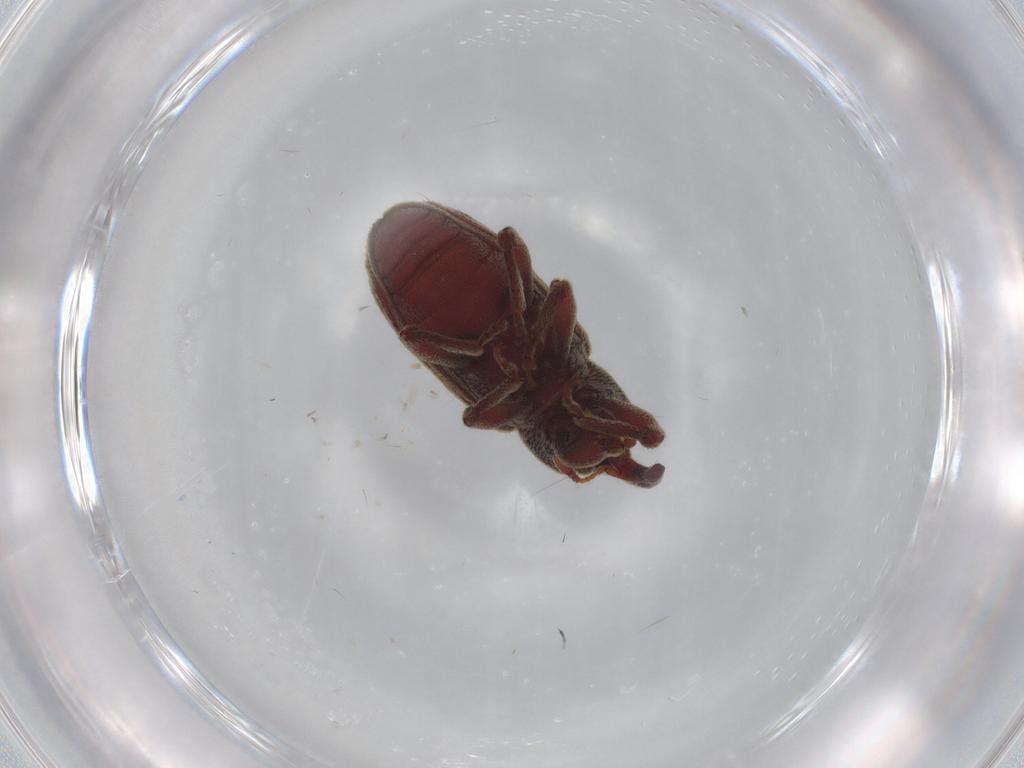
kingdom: Animalia
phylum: Arthropoda
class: Insecta
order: Coleoptera
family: Curculionidae
